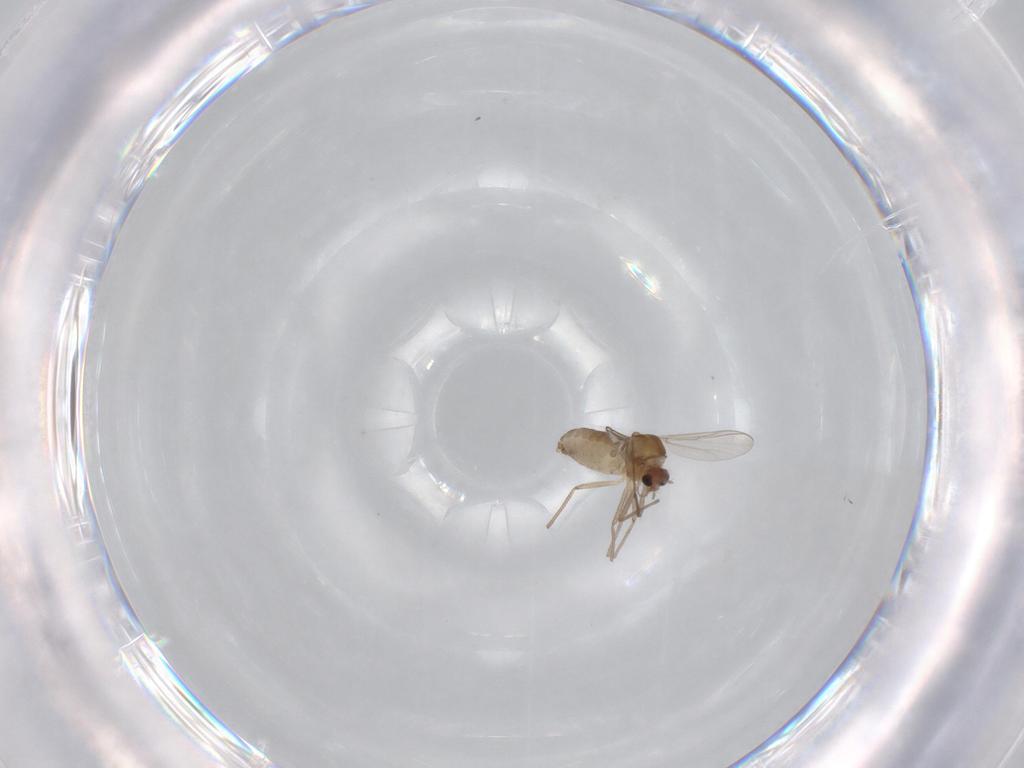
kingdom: Animalia
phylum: Arthropoda
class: Insecta
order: Diptera
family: Chironomidae
